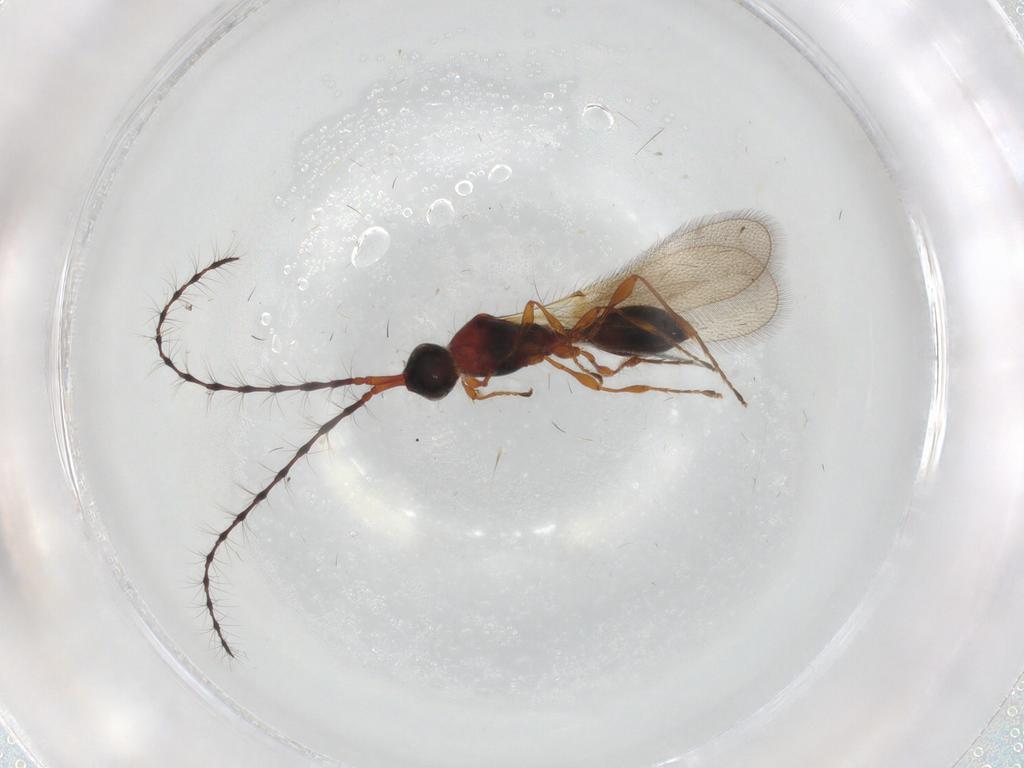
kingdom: Animalia
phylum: Arthropoda
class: Insecta
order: Hymenoptera
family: Diapriidae
